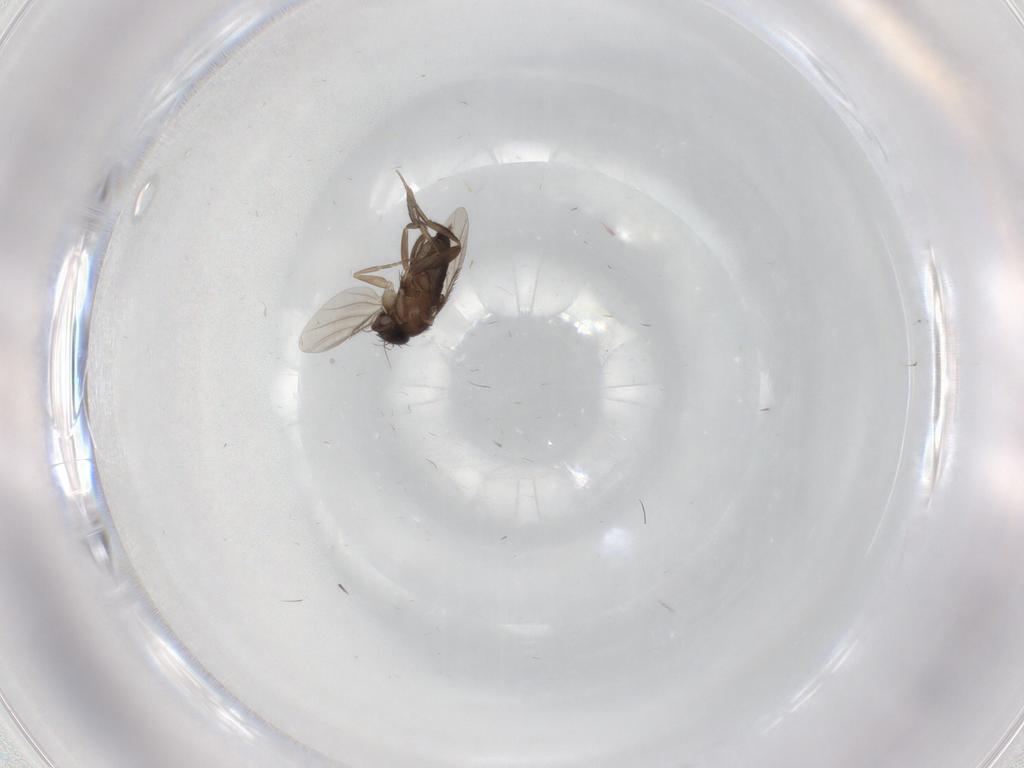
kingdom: Animalia
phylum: Arthropoda
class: Insecta
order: Diptera
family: Phoridae
